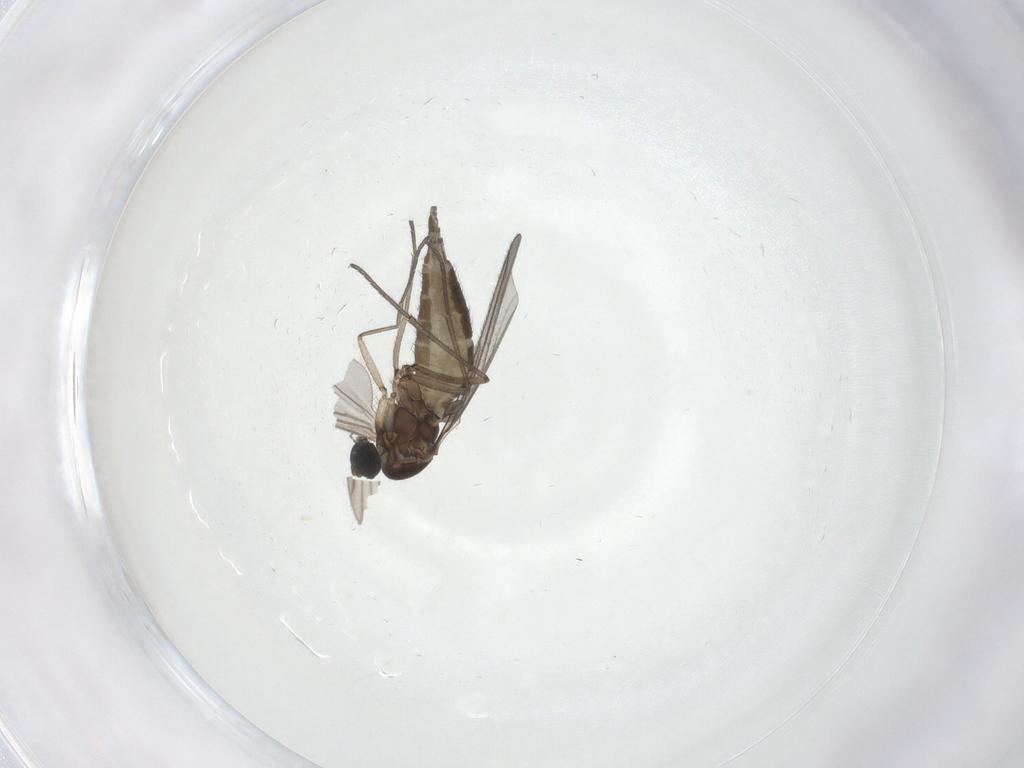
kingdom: Animalia
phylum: Arthropoda
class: Insecta
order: Diptera
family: Sciaridae
